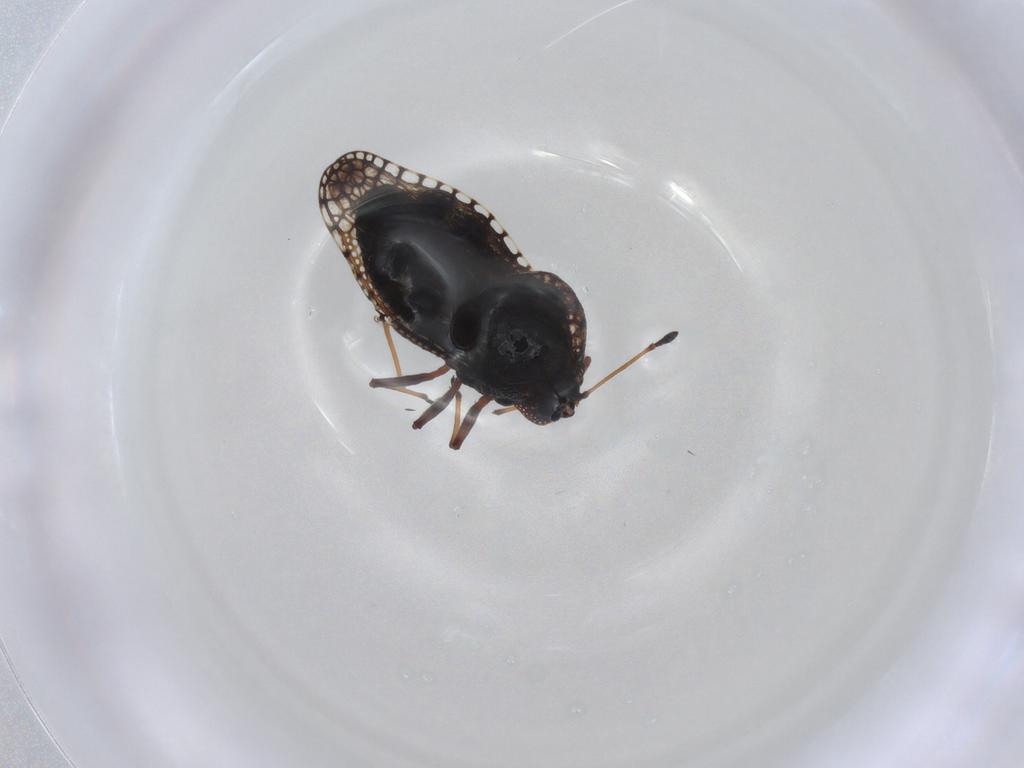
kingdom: Animalia
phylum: Arthropoda
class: Insecta
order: Hemiptera
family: Tingidae
